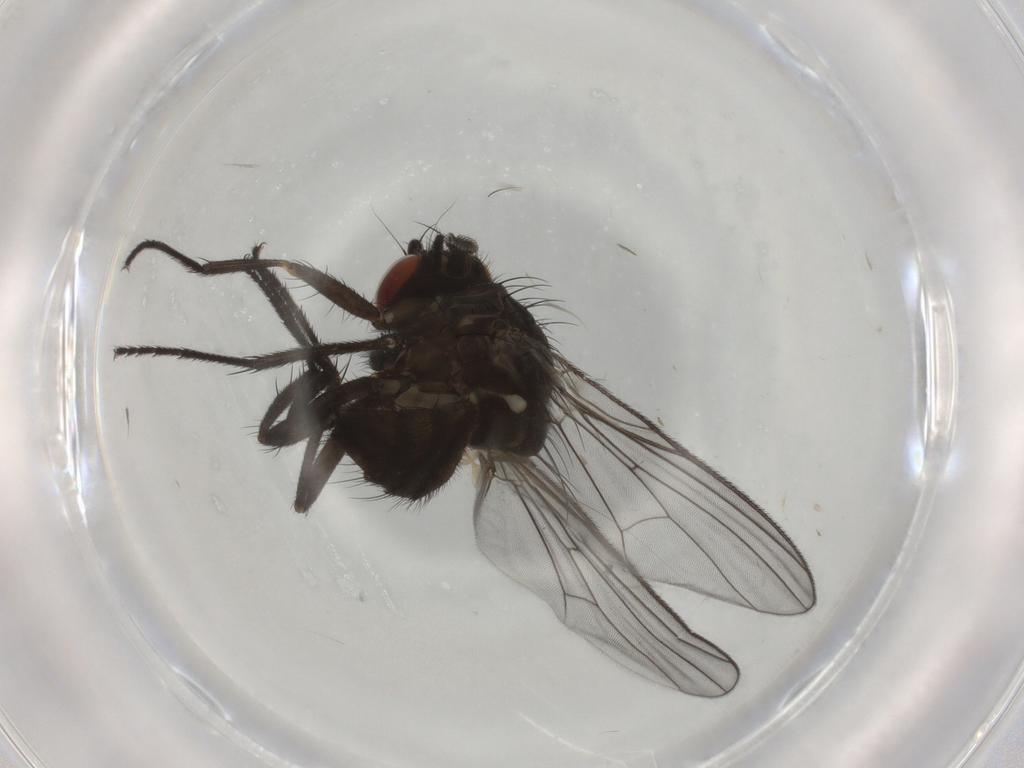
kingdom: Animalia
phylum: Arthropoda
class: Insecta
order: Diptera
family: Muscidae
